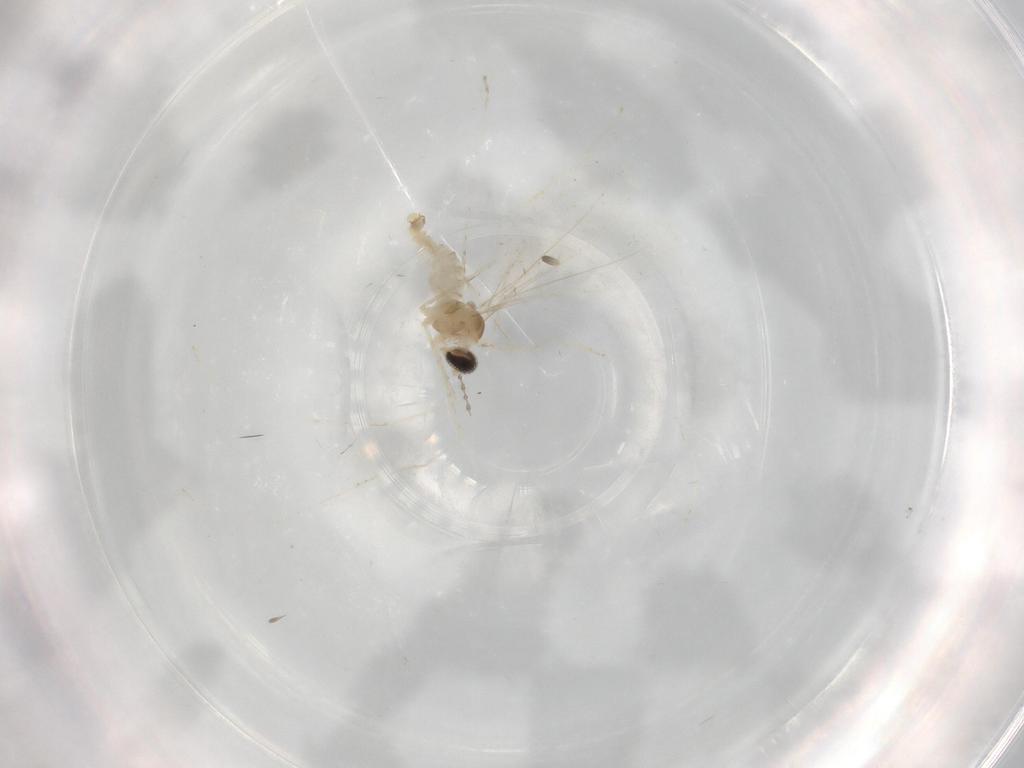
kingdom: Animalia
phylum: Arthropoda
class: Insecta
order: Diptera
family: Cecidomyiidae
